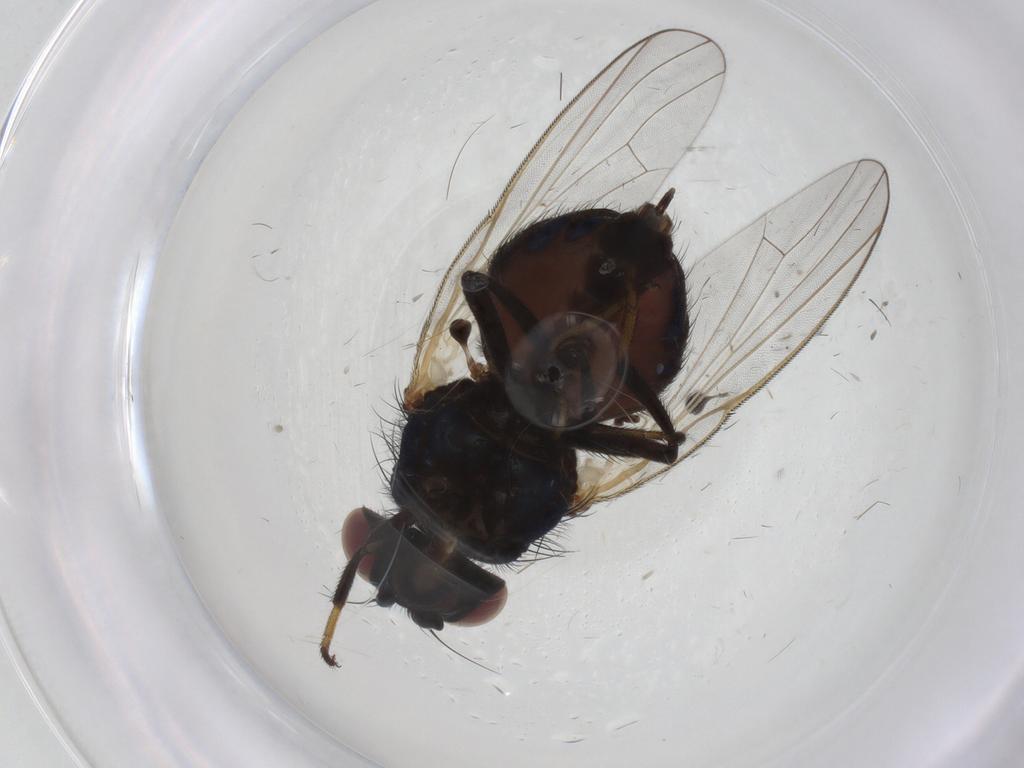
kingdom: Animalia
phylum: Arthropoda
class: Insecta
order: Diptera
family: Lonchaeidae
